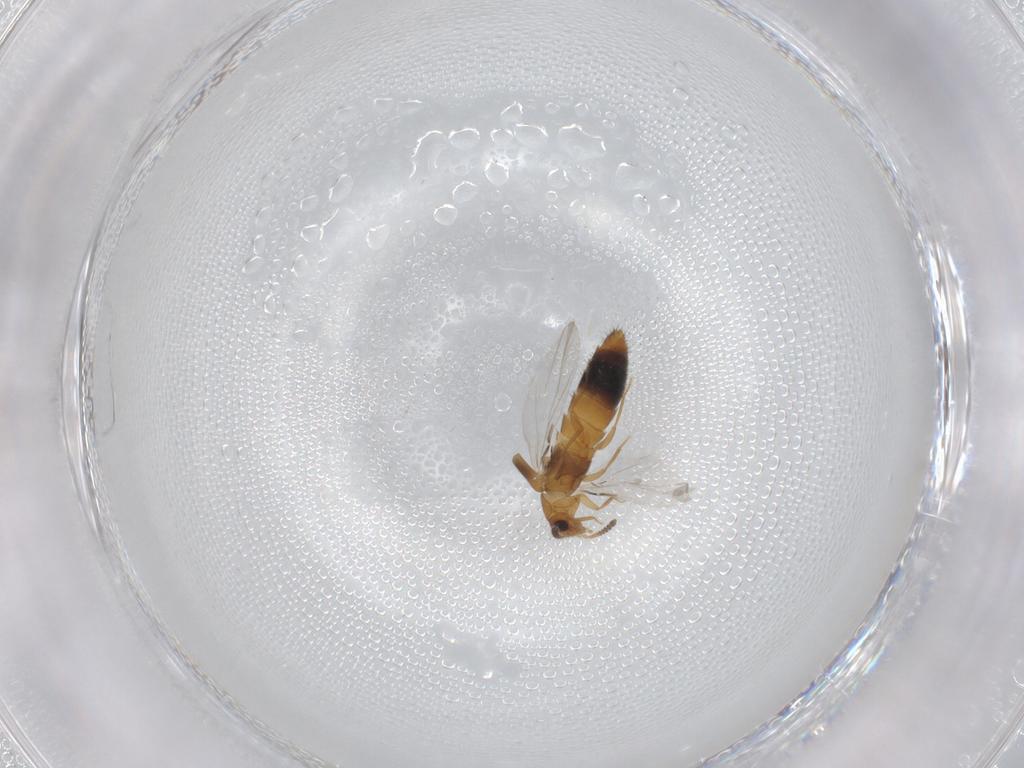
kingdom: Animalia
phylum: Arthropoda
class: Insecta
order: Coleoptera
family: Staphylinidae
